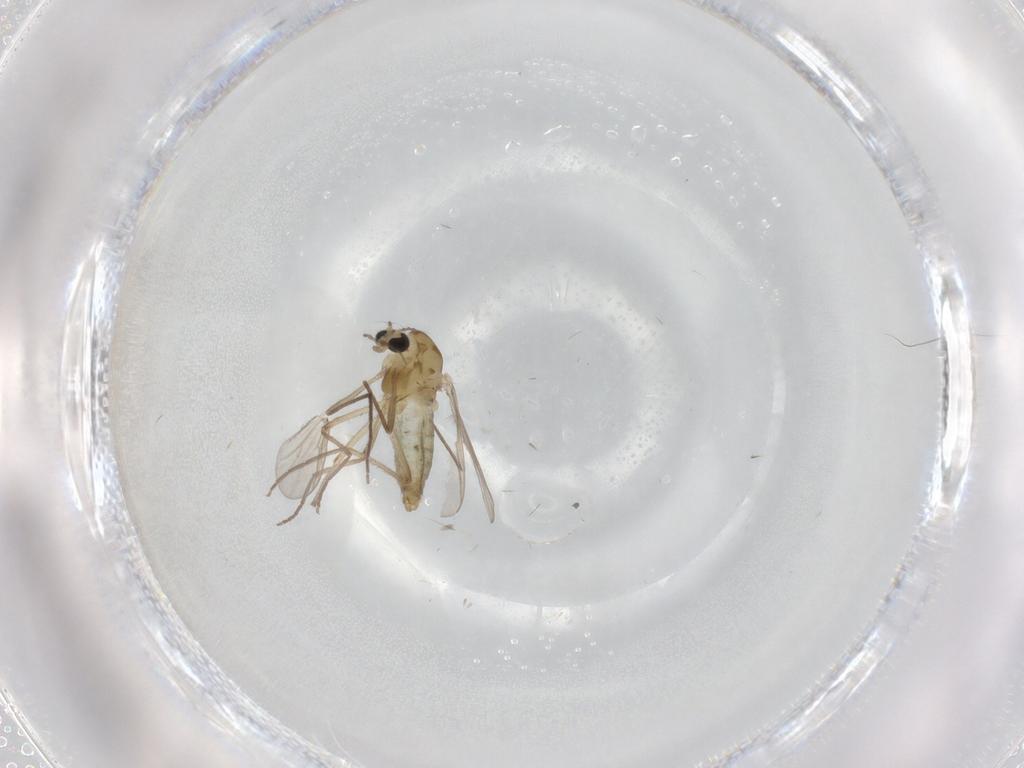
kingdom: Animalia
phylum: Arthropoda
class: Insecta
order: Diptera
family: Chironomidae
